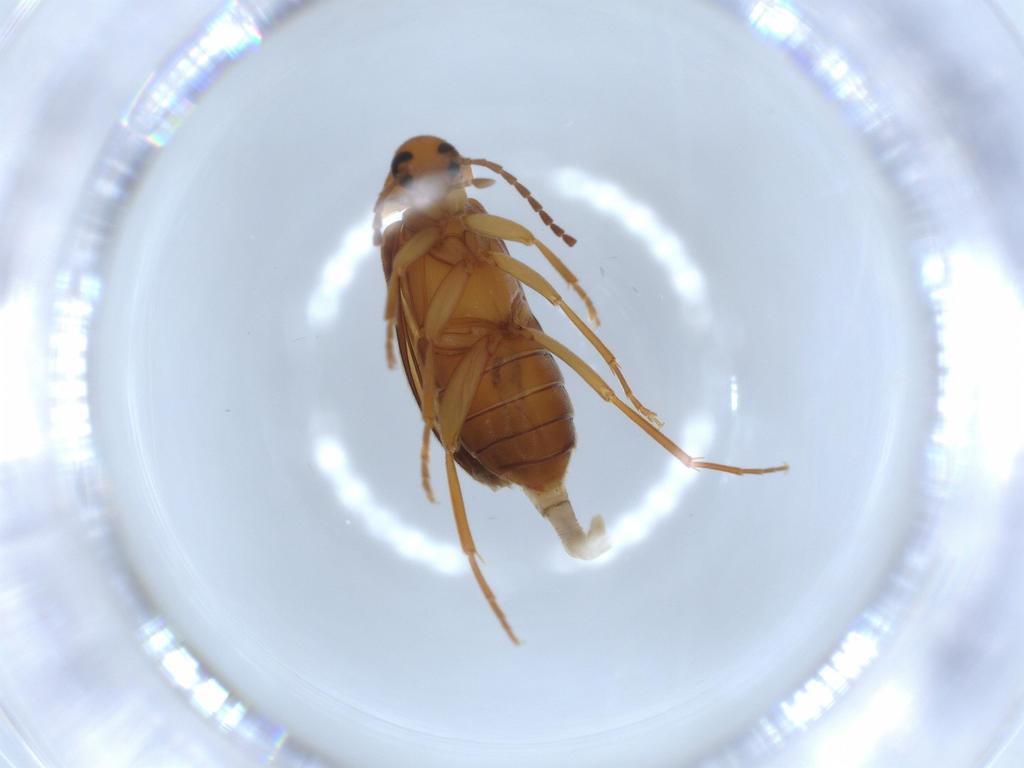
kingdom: Animalia
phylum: Arthropoda
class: Insecta
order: Coleoptera
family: Scraptiidae
